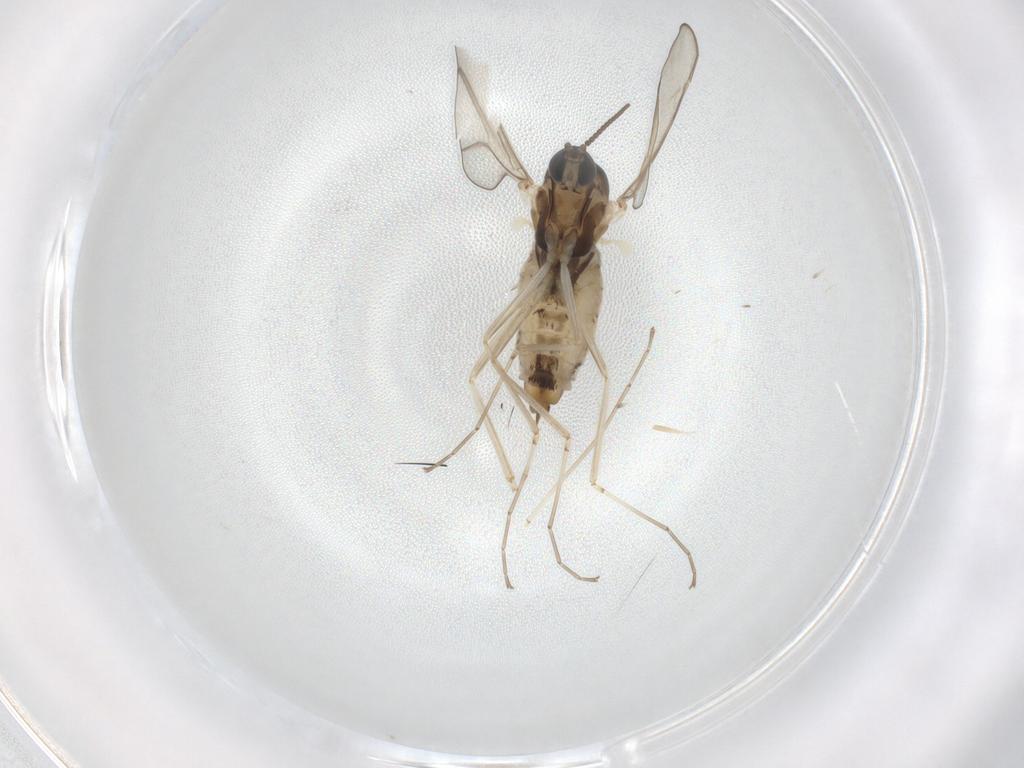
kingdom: Animalia
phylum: Arthropoda
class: Insecta
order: Diptera
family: Cecidomyiidae
